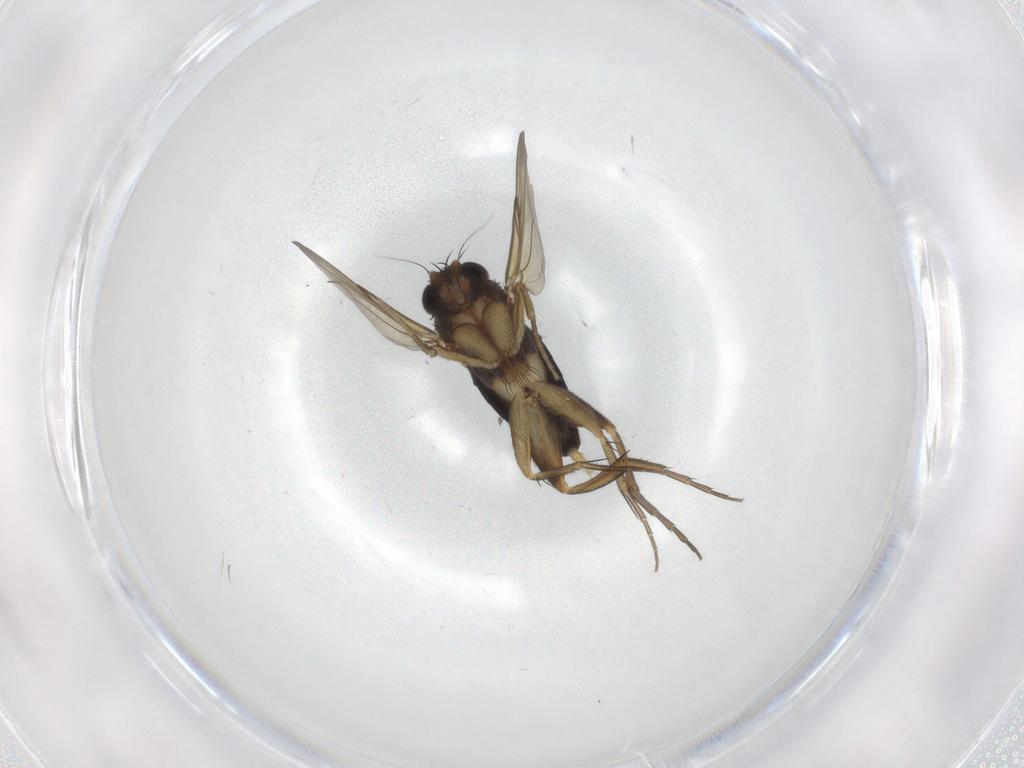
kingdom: Animalia
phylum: Arthropoda
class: Insecta
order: Diptera
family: Phoridae
